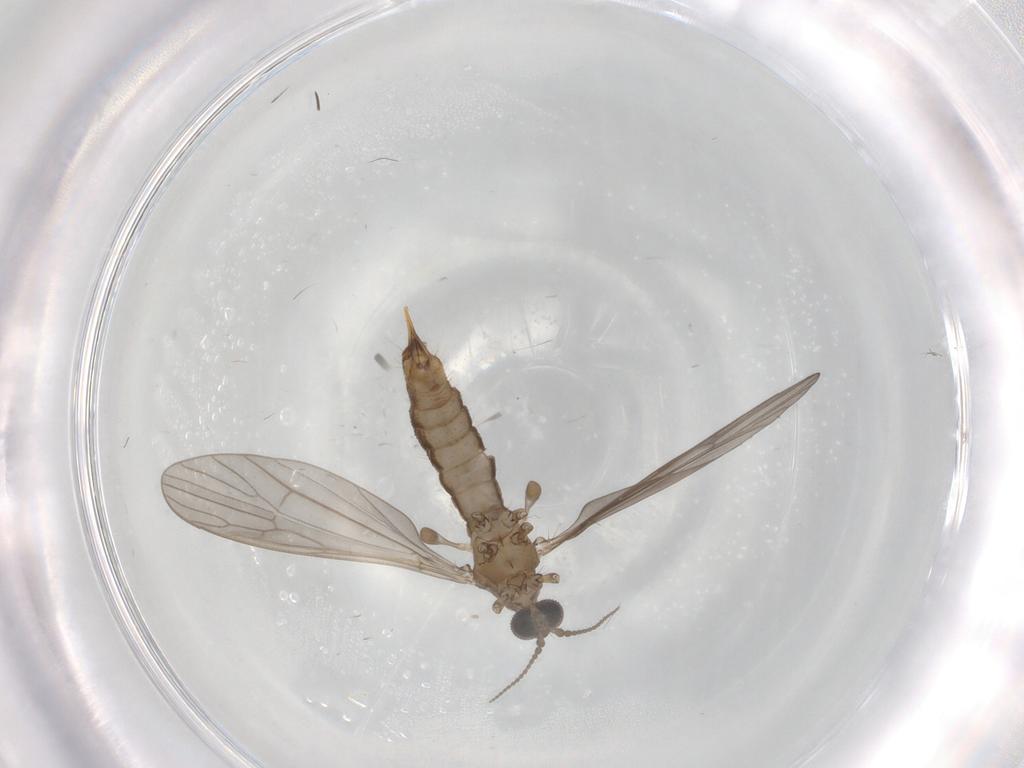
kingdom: Animalia
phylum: Arthropoda
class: Insecta
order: Diptera
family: Limoniidae
